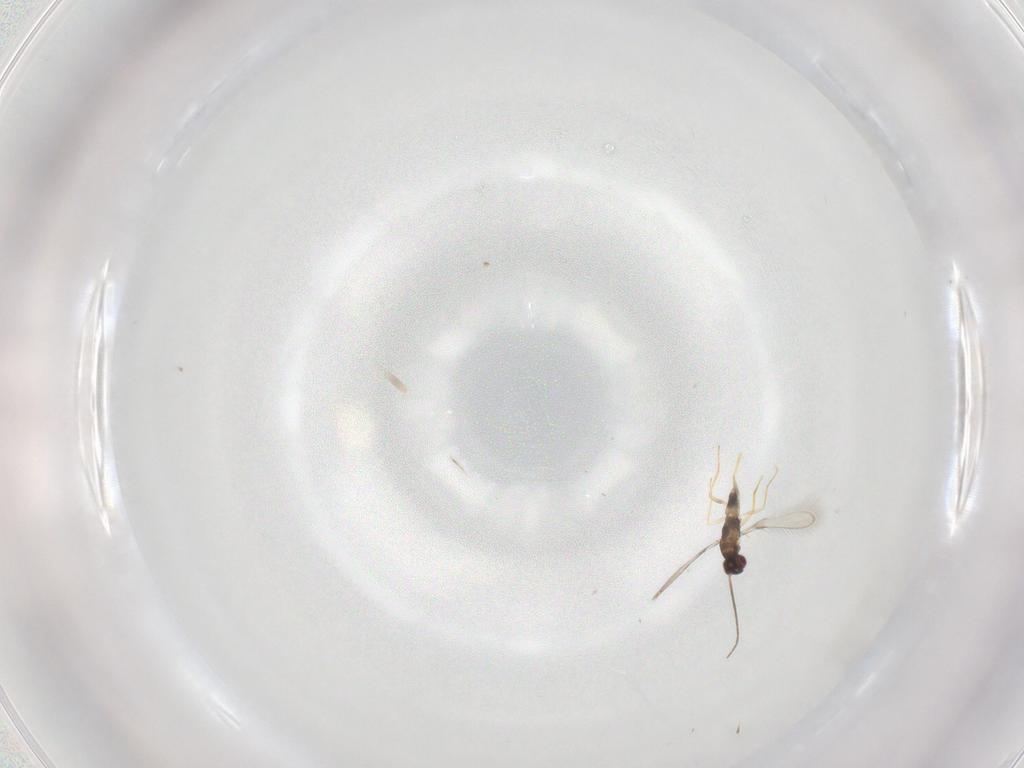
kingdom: Animalia
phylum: Arthropoda
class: Insecta
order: Hymenoptera
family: Mymaridae
